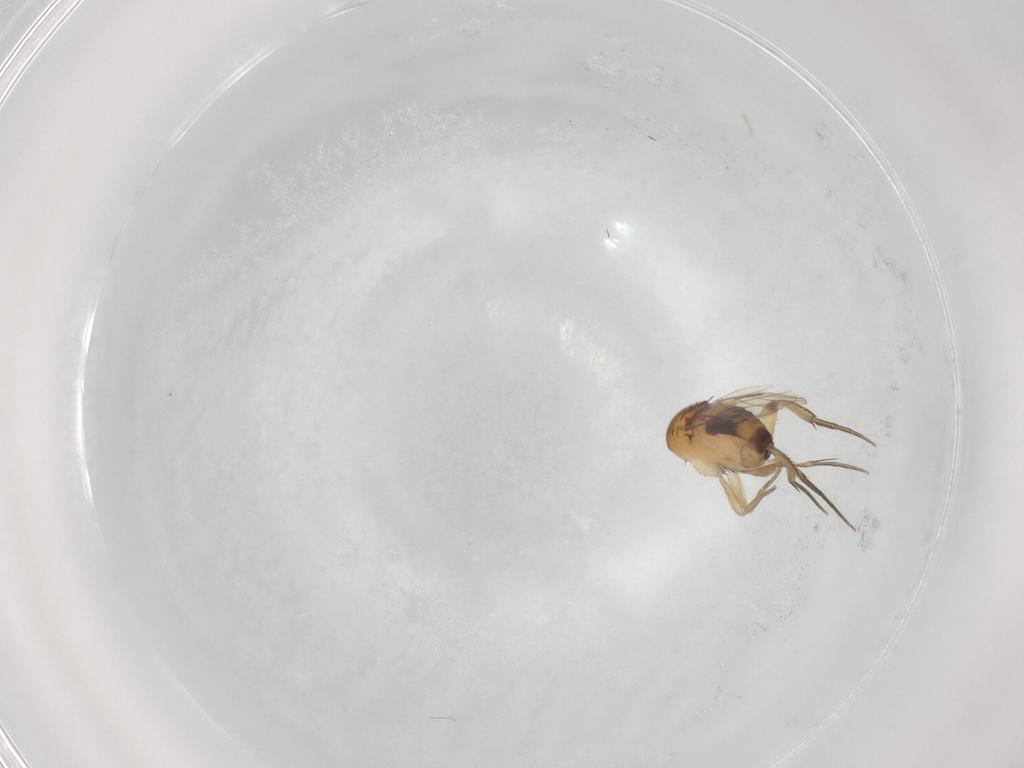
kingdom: Animalia
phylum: Arthropoda
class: Insecta
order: Diptera
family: Phoridae
